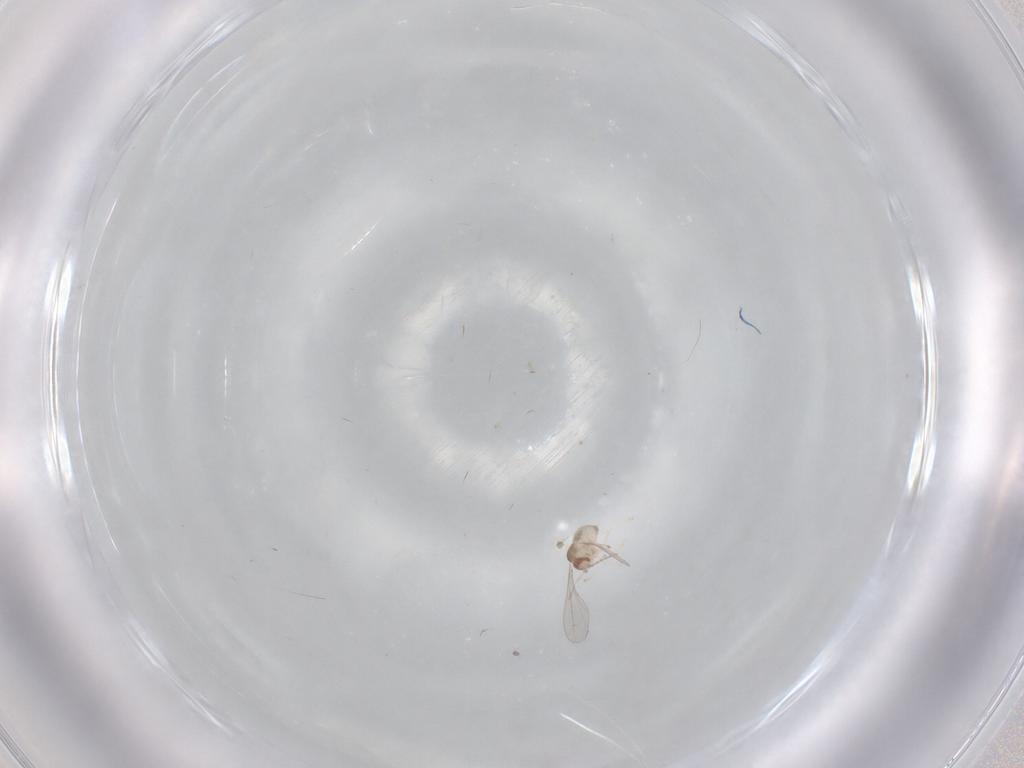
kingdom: Animalia
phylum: Arthropoda
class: Insecta
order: Diptera
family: Cecidomyiidae
